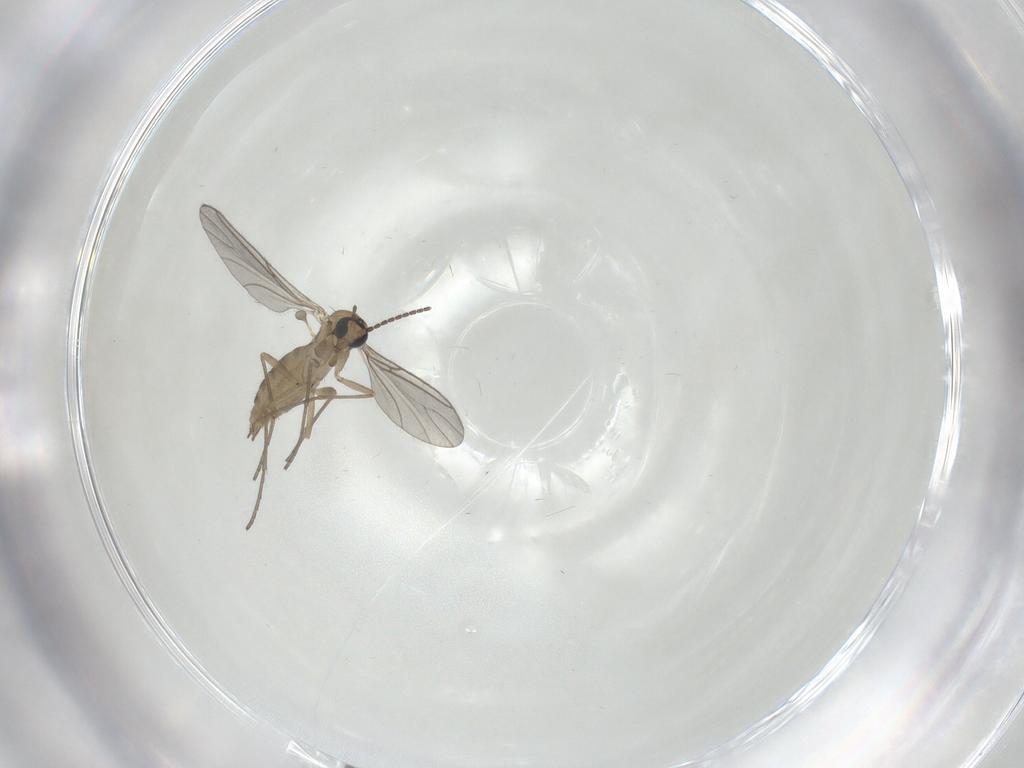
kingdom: Animalia
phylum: Arthropoda
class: Insecta
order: Diptera
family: Sciaridae
